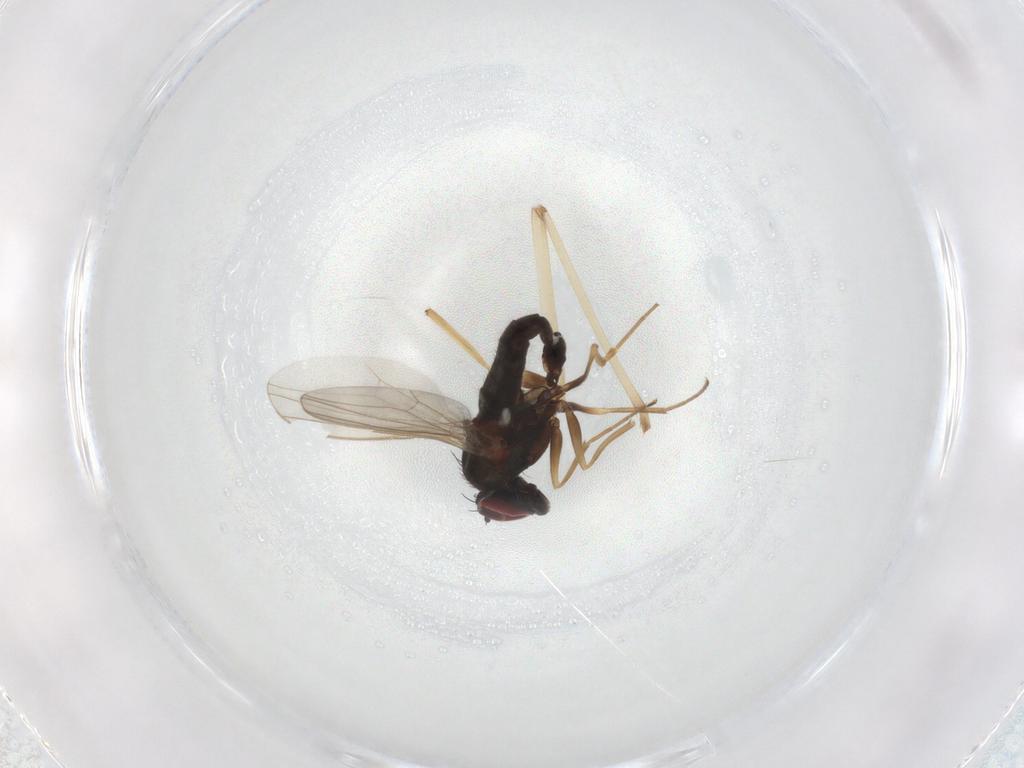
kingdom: Animalia
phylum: Arthropoda
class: Insecta
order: Diptera
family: Cecidomyiidae
